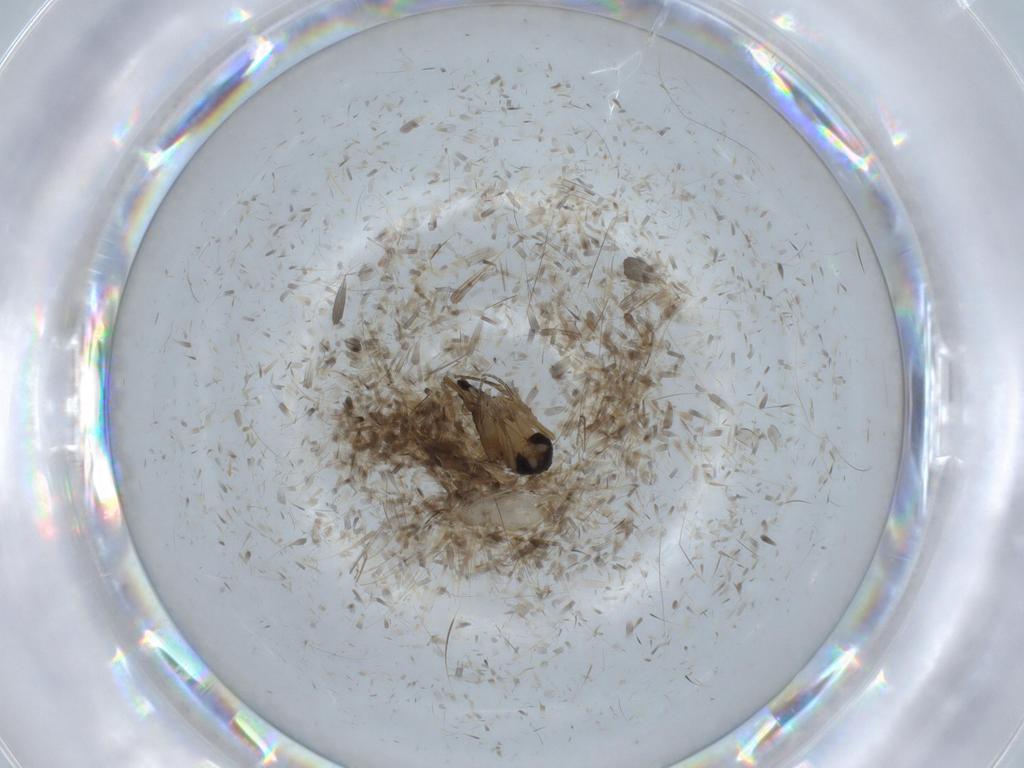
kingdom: Animalia
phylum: Arthropoda
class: Insecta
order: Diptera
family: Phoridae
